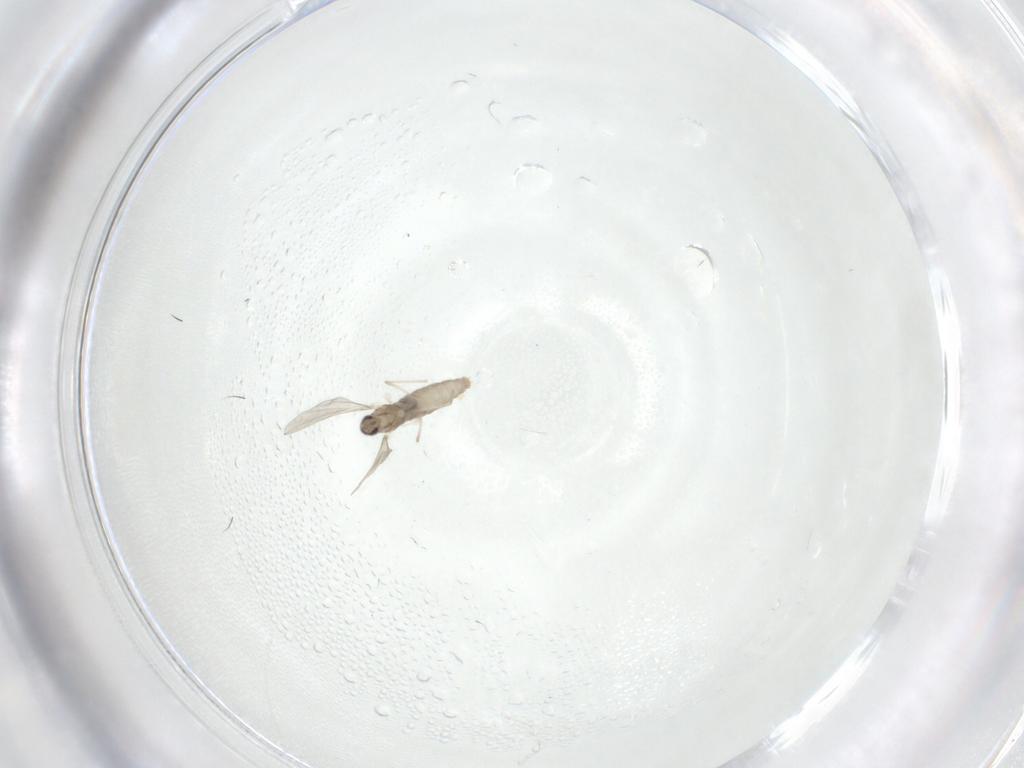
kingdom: Animalia
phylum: Arthropoda
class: Insecta
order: Diptera
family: Cecidomyiidae
